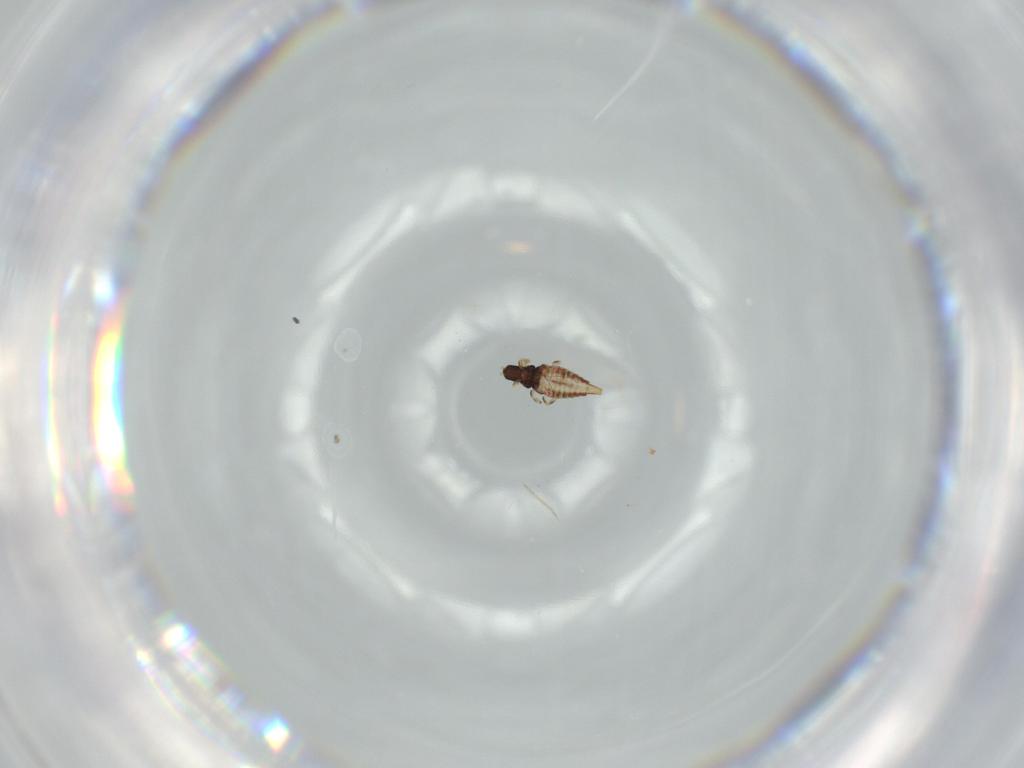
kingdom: Animalia
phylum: Arthropoda
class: Insecta
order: Thysanoptera
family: Phlaeothripidae
